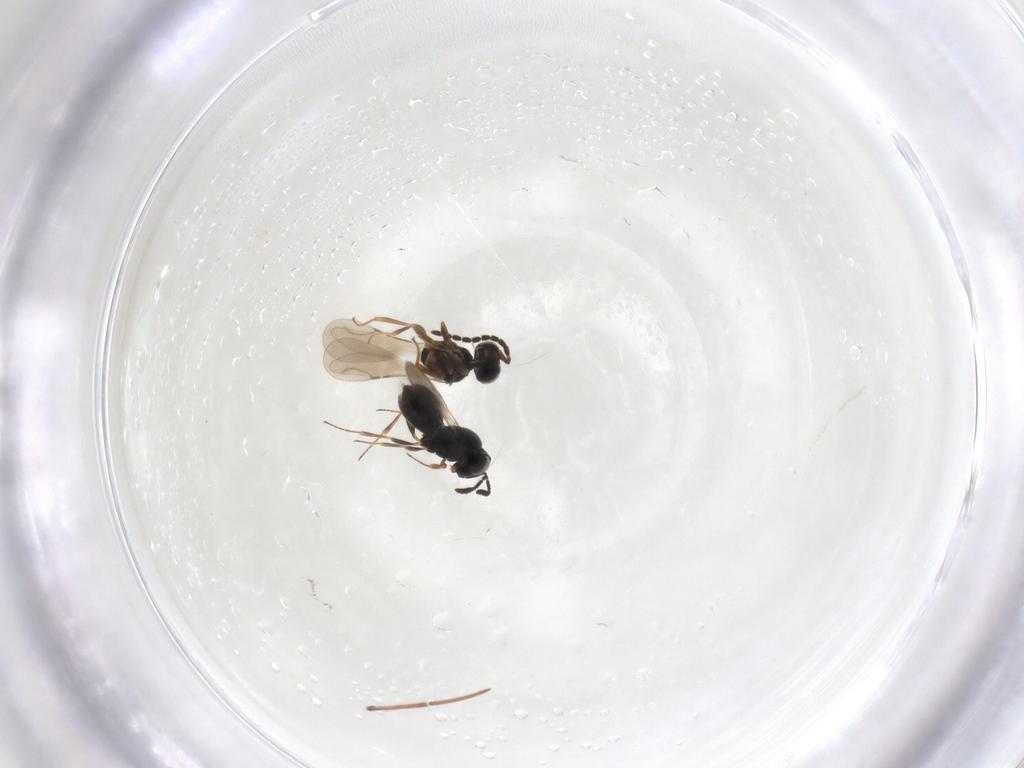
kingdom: Animalia
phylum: Arthropoda
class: Insecta
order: Hymenoptera
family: Scelionidae
